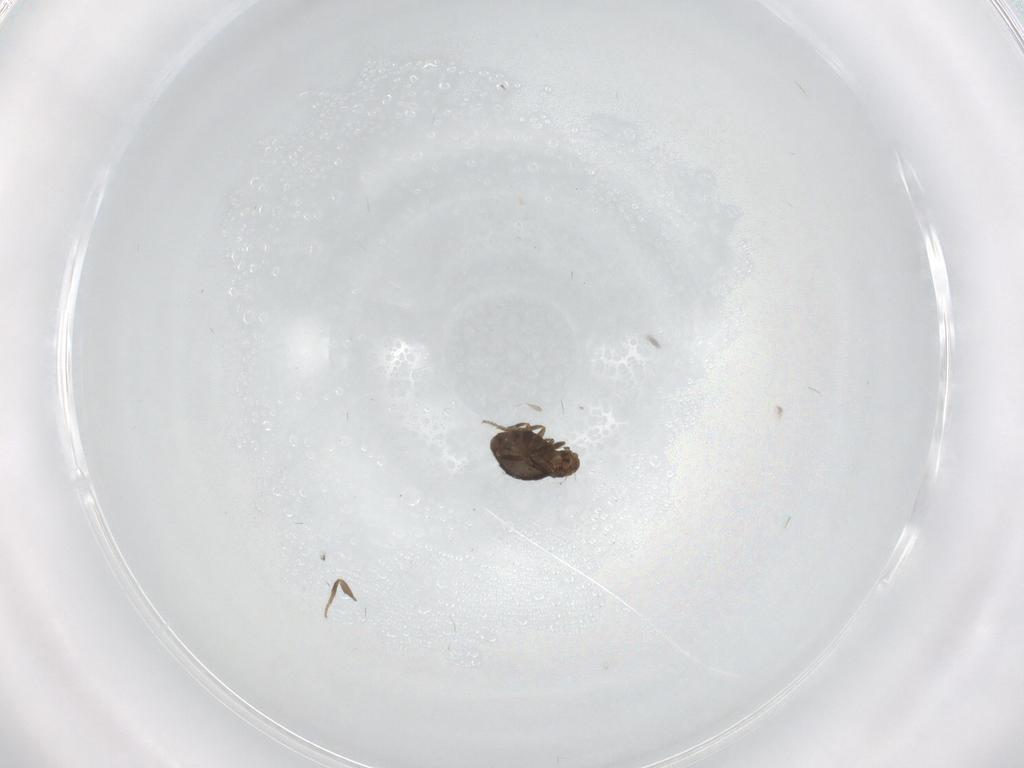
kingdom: Animalia
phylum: Arthropoda
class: Insecta
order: Diptera
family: Phoridae
